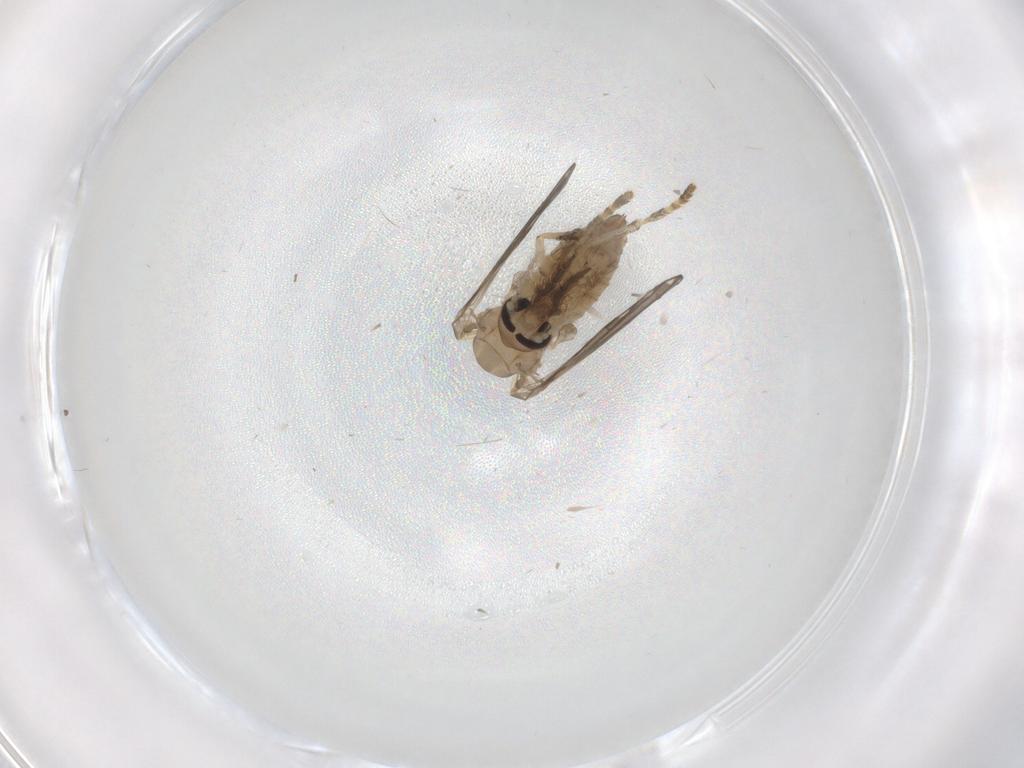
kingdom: Animalia
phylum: Arthropoda
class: Insecta
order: Diptera
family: Psychodidae
